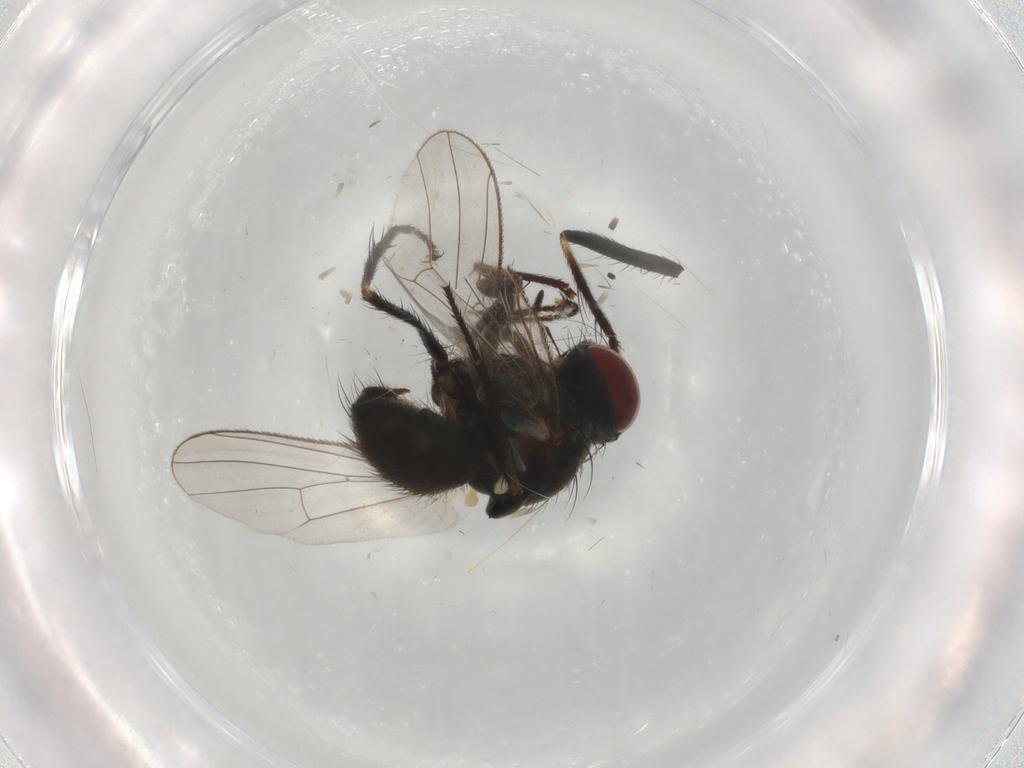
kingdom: Animalia
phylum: Arthropoda
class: Insecta
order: Diptera
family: Muscidae
